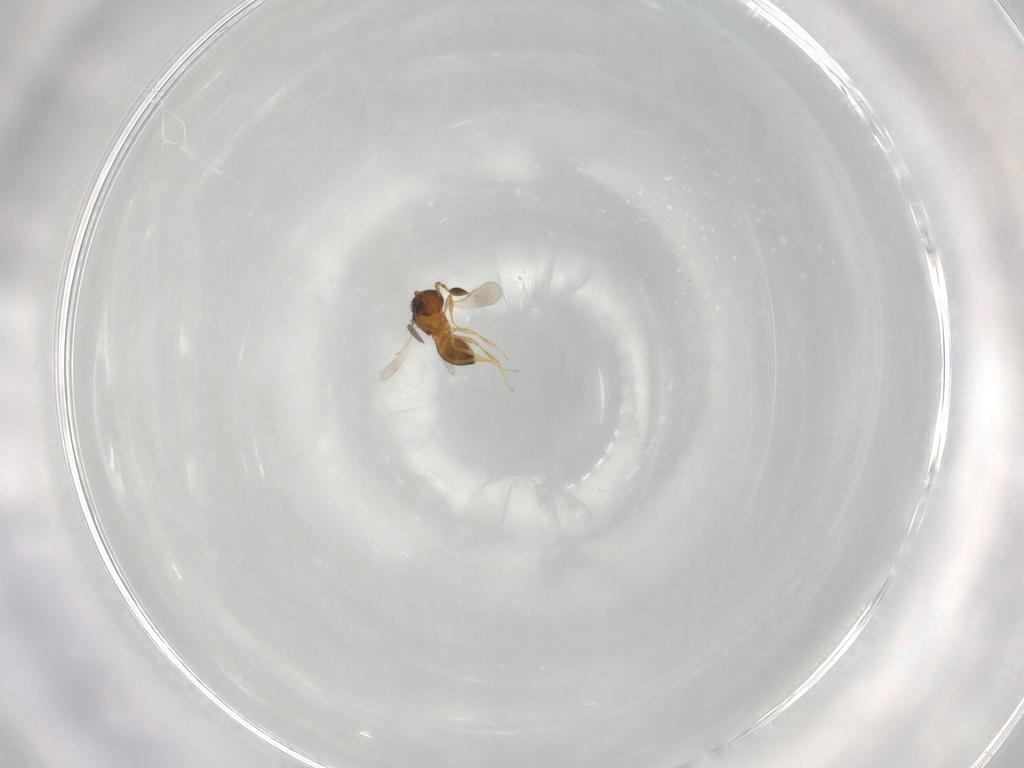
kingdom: Animalia
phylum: Arthropoda
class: Insecta
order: Hymenoptera
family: Scelionidae
